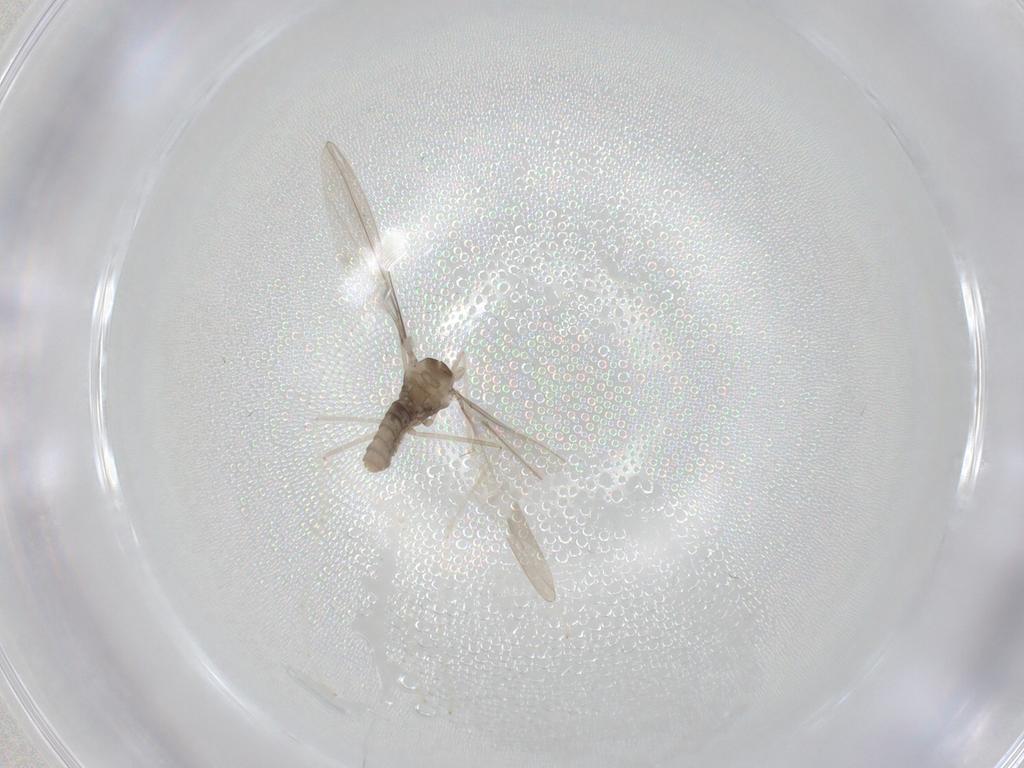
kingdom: Animalia
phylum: Arthropoda
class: Insecta
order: Diptera
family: Cecidomyiidae
